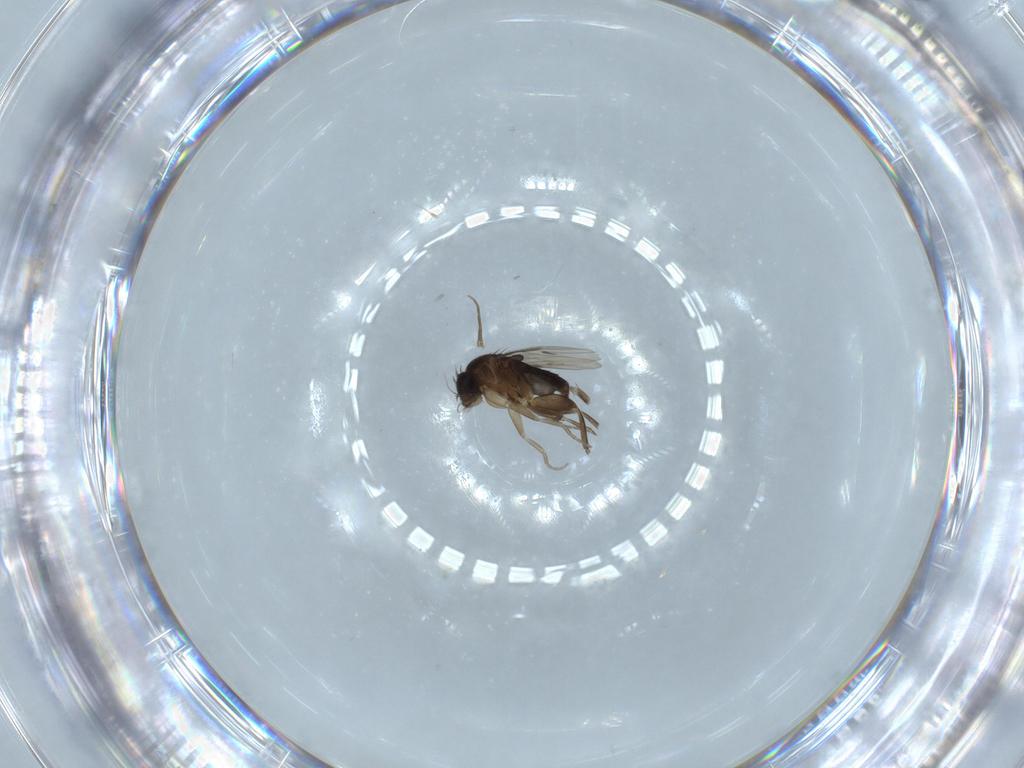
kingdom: Animalia
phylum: Arthropoda
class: Insecta
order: Diptera
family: Phoridae
